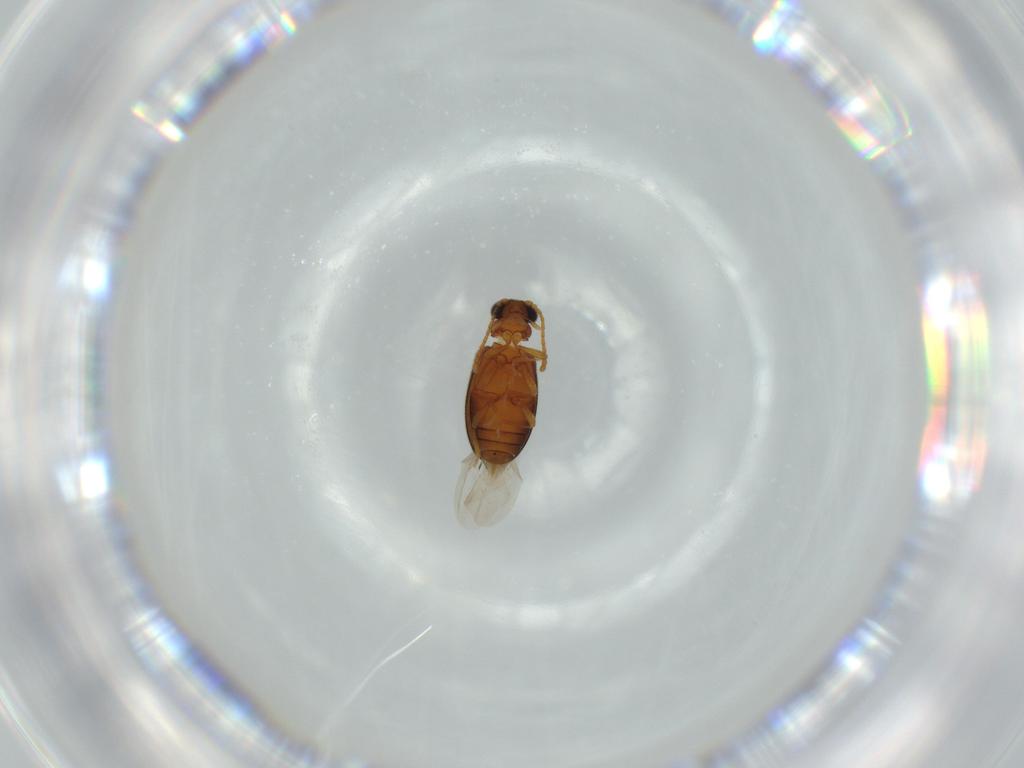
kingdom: Animalia
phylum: Arthropoda
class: Insecta
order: Coleoptera
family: Aderidae
